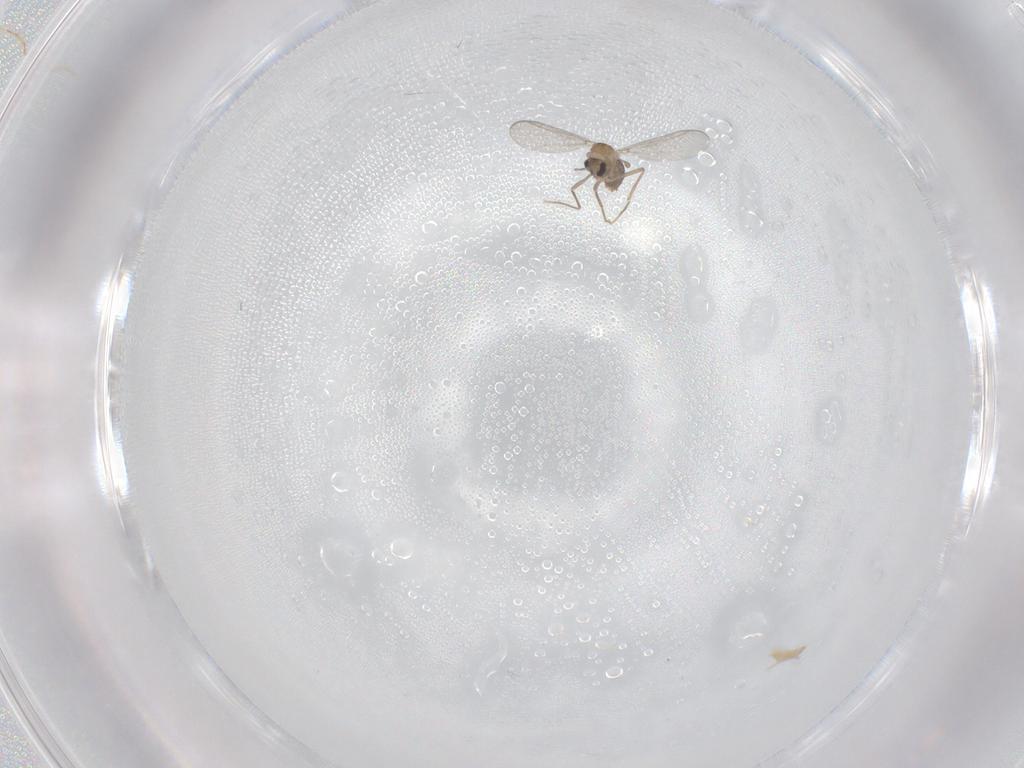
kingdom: Animalia
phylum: Arthropoda
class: Insecta
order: Diptera
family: Chironomidae
